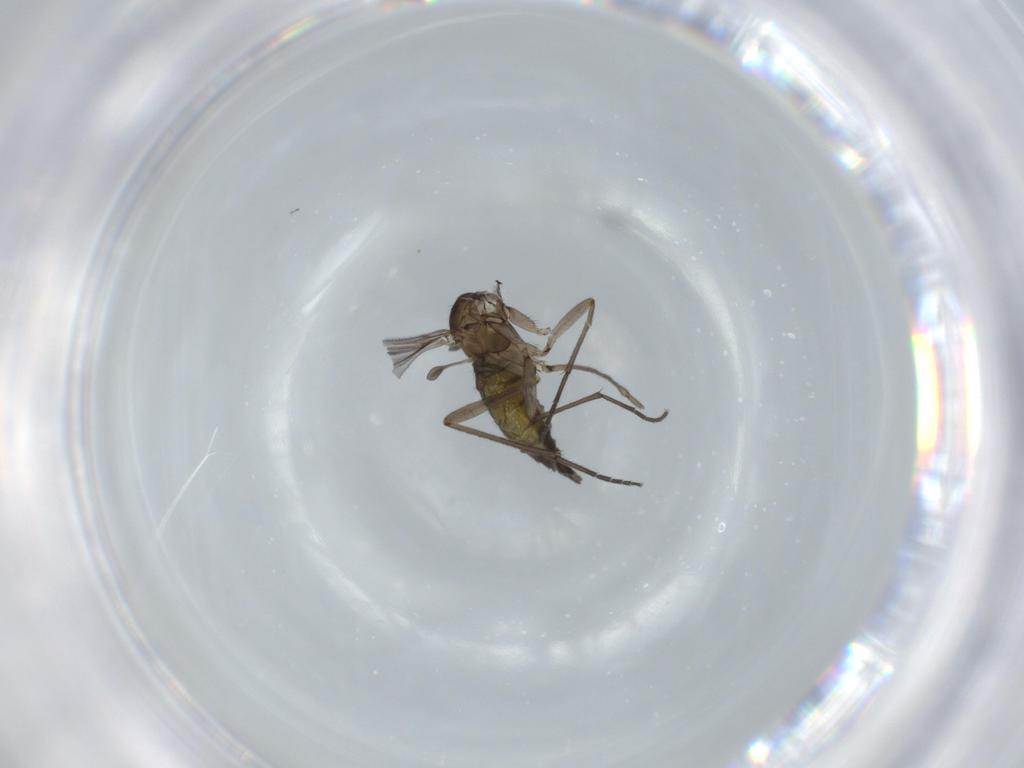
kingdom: Animalia
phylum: Arthropoda
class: Insecta
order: Diptera
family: Sciaridae
